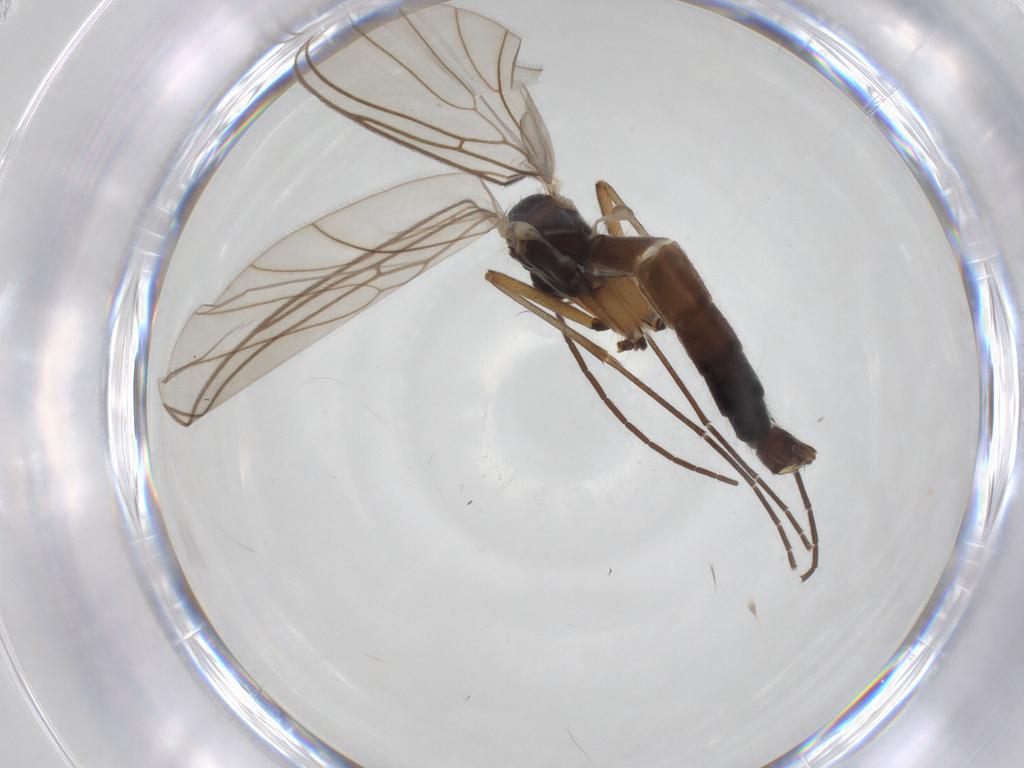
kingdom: Animalia
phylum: Arthropoda
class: Insecta
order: Diptera
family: Mycetophilidae
